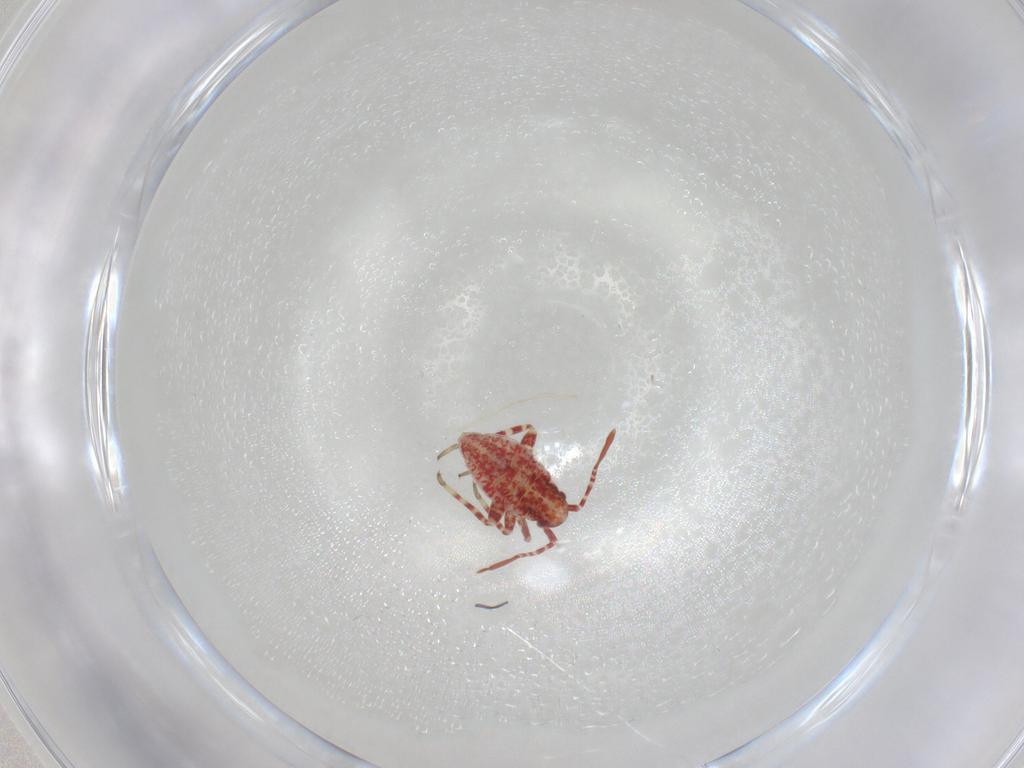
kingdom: Animalia
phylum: Arthropoda
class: Insecta
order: Hemiptera
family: Miridae
